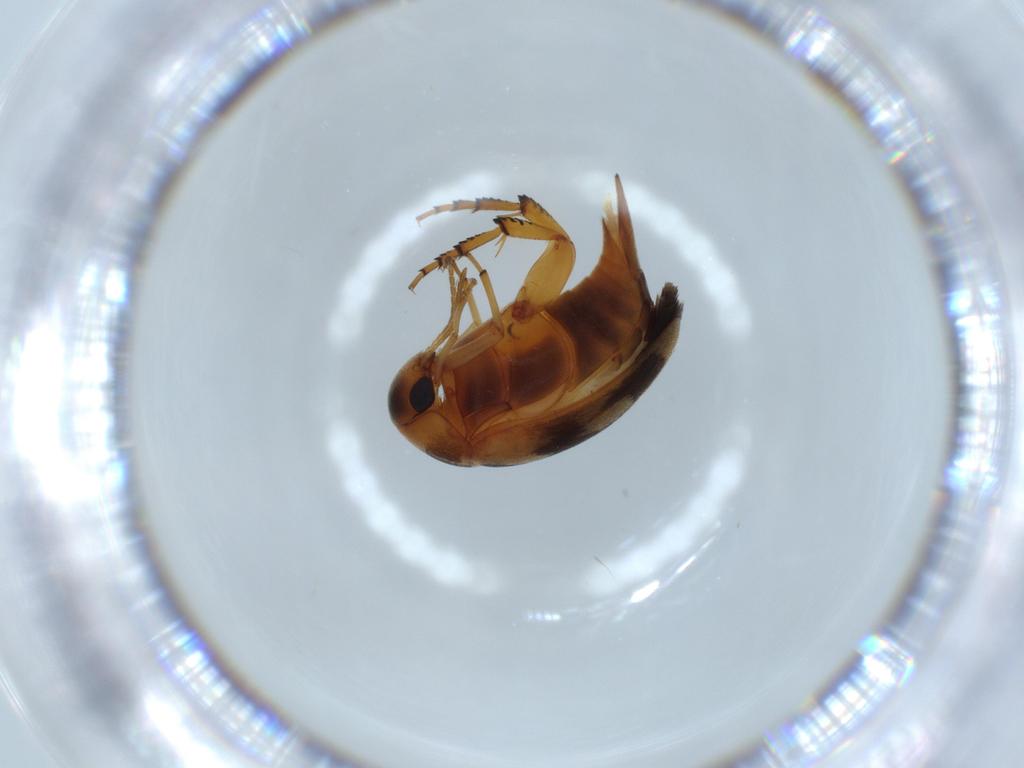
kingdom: Animalia
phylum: Arthropoda
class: Insecta
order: Coleoptera
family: Mordellidae
